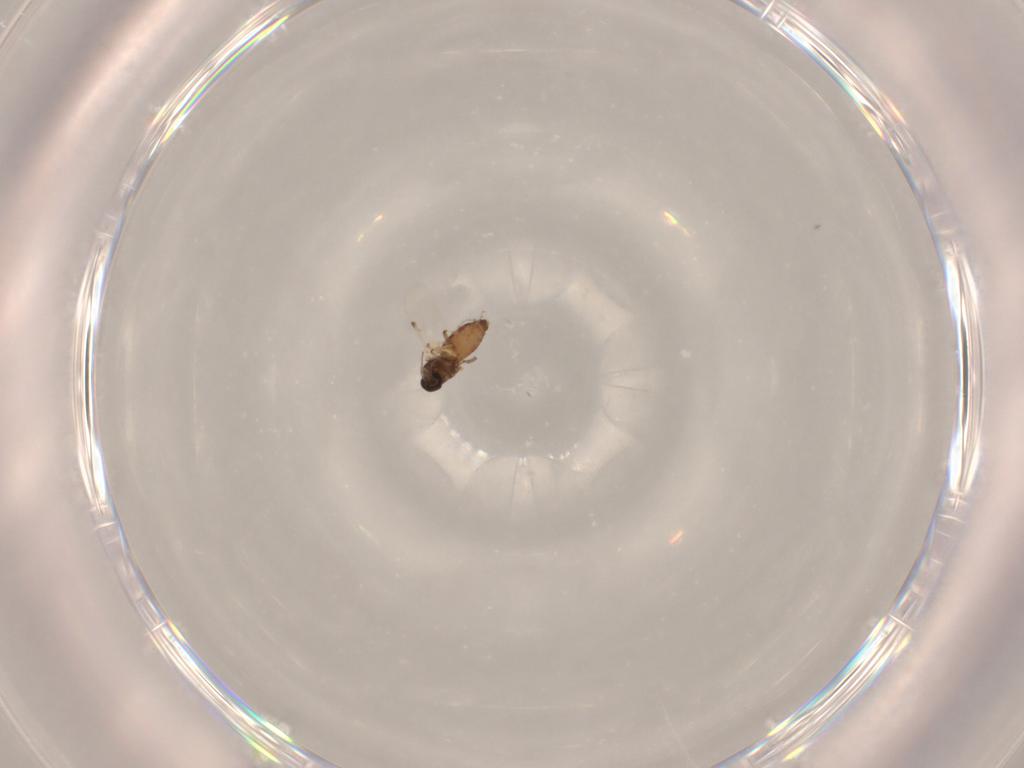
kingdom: Animalia
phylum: Arthropoda
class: Insecta
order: Diptera
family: Ceratopogonidae
